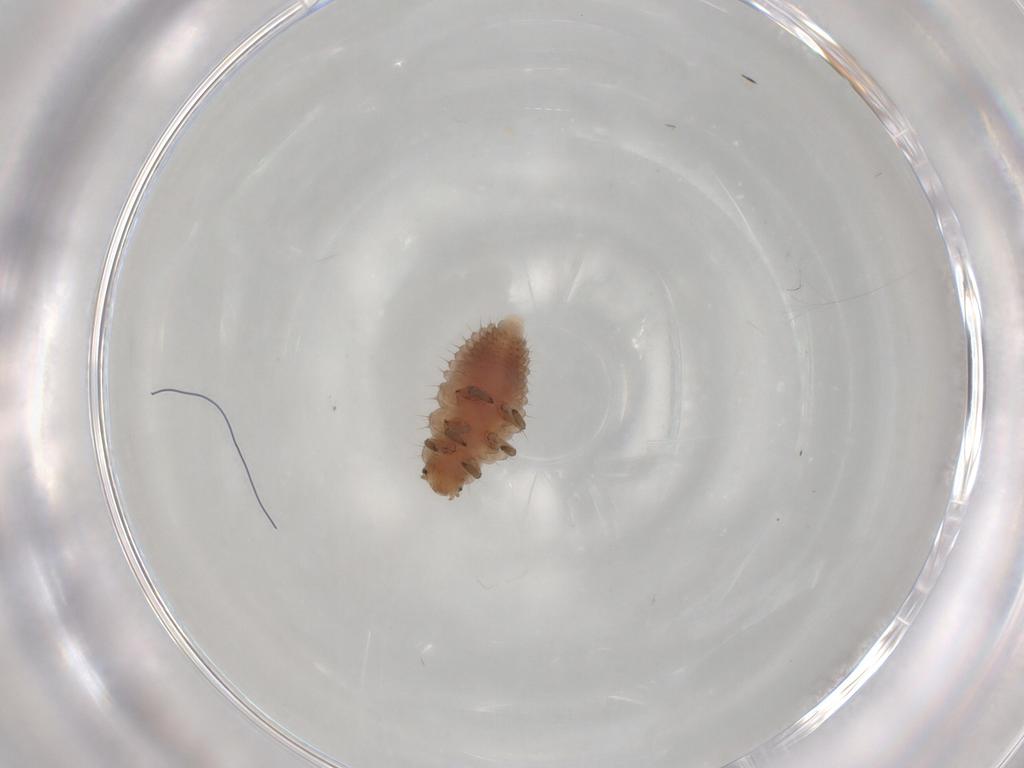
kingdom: Animalia
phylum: Arthropoda
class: Insecta
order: Coleoptera
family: Coccinellidae
